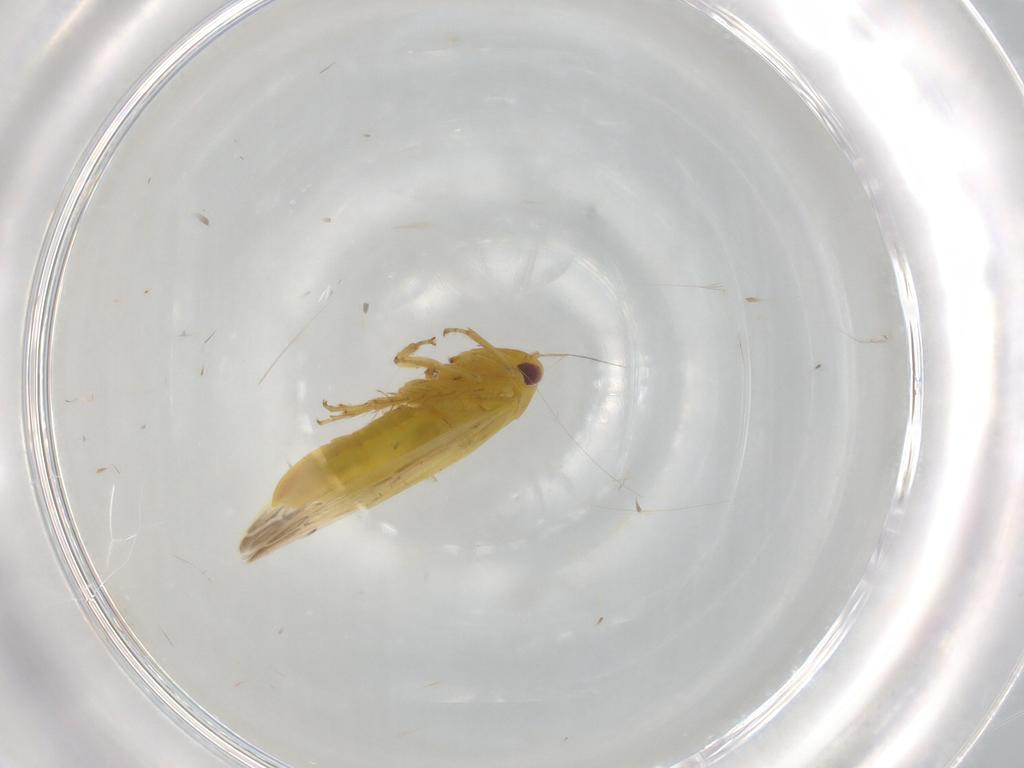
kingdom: Animalia
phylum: Arthropoda
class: Insecta
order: Hemiptera
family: Cicadellidae
